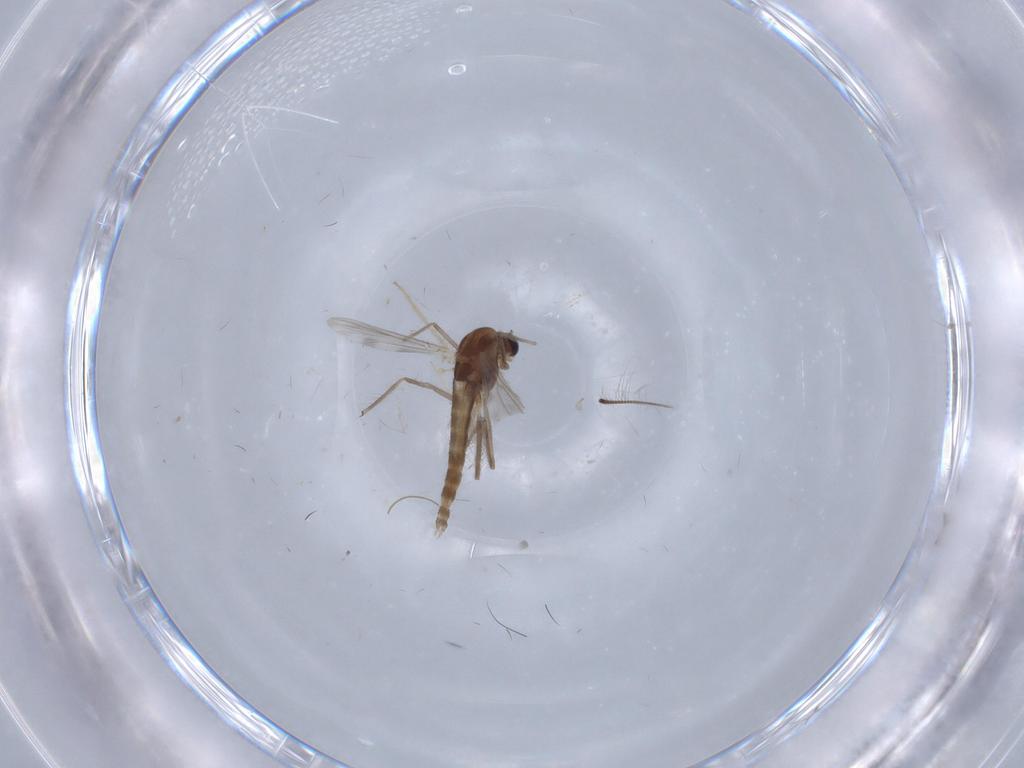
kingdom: Animalia
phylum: Arthropoda
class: Insecta
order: Diptera
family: Chironomidae
